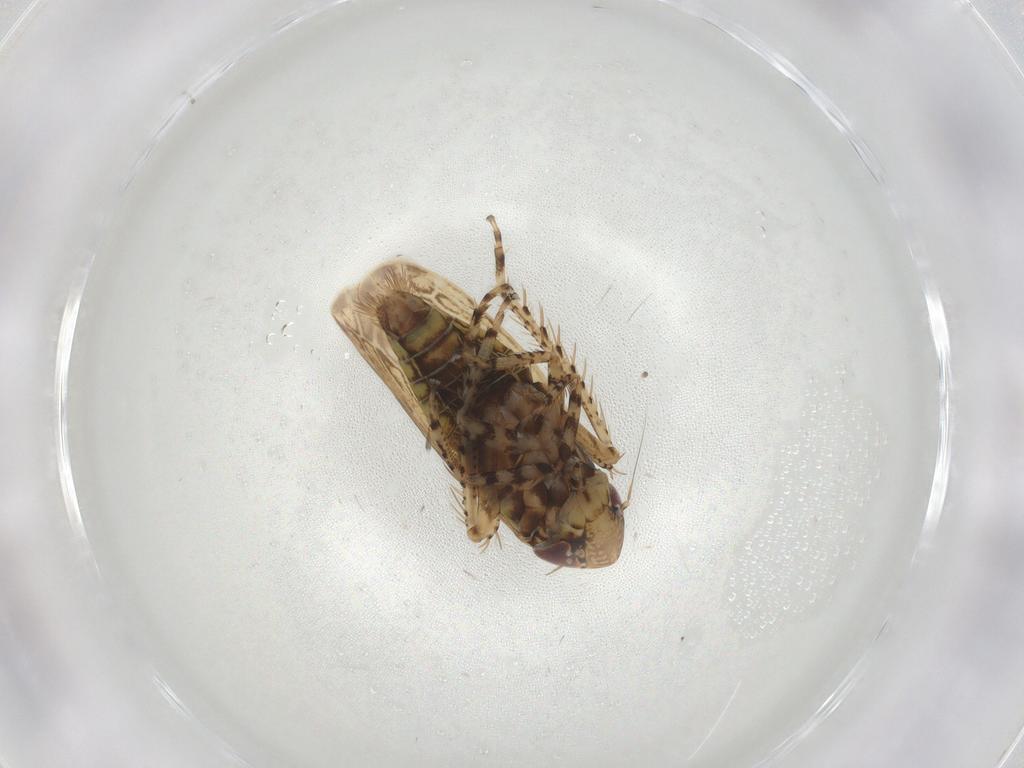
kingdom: Animalia
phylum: Arthropoda
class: Insecta
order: Hemiptera
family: Cicadellidae
